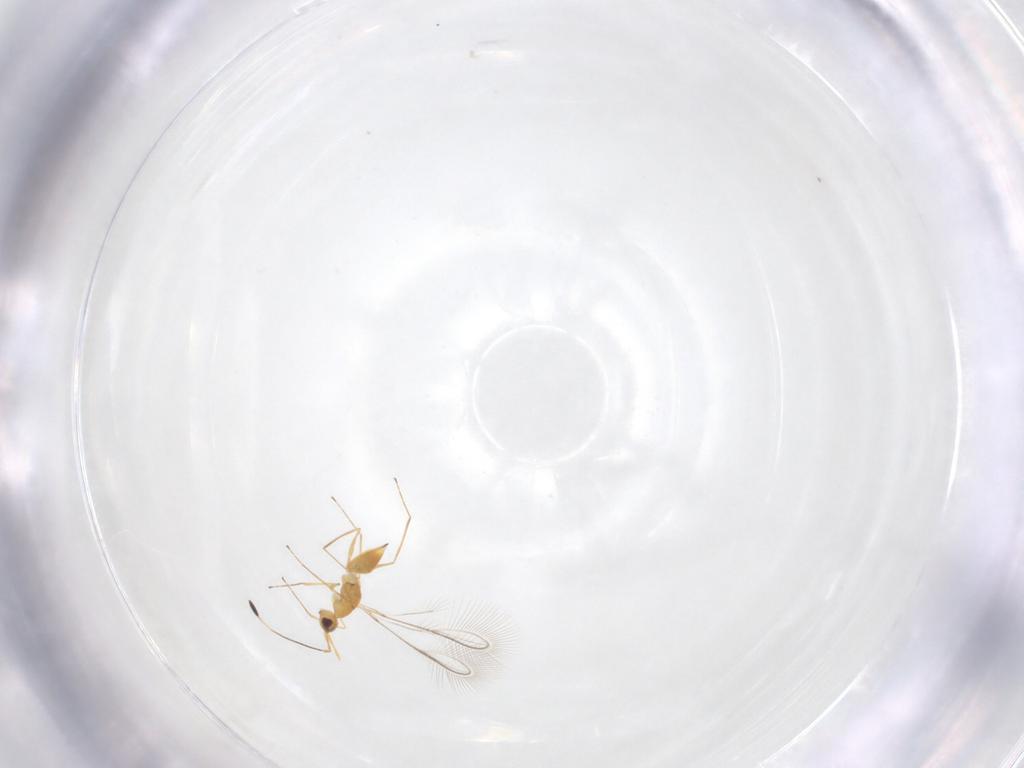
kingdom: Animalia
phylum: Arthropoda
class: Insecta
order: Hymenoptera
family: Mymaridae
